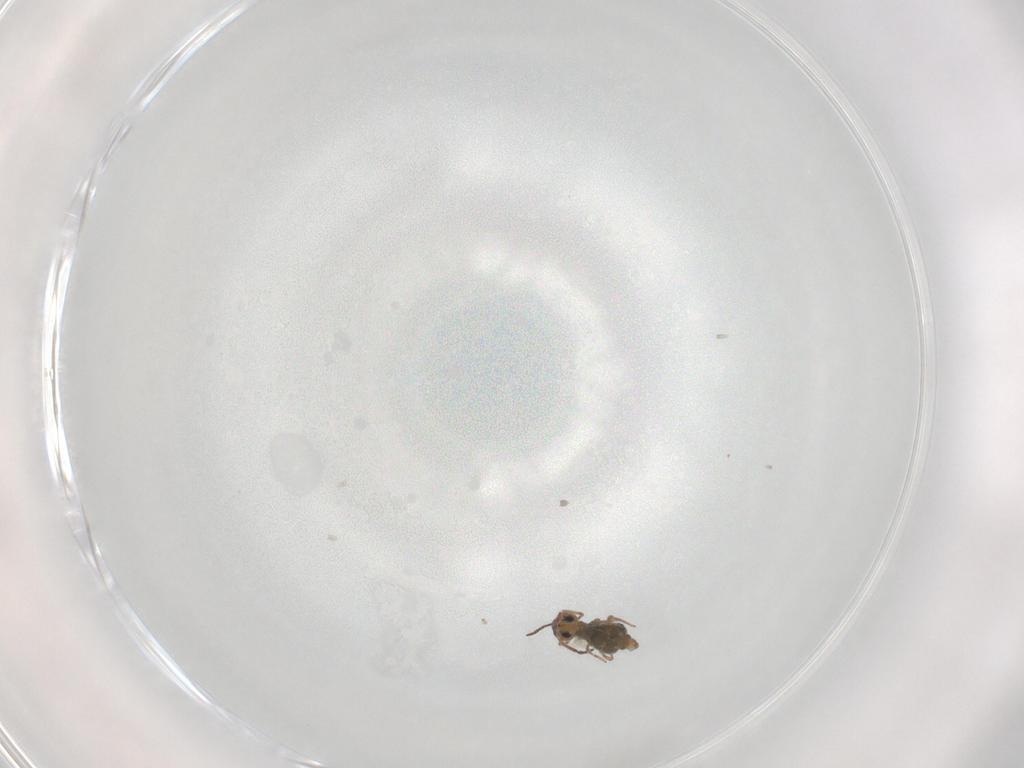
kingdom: Animalia
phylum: Arthropoda
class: Collembola
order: Symphypleona
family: Bourletiellidae
